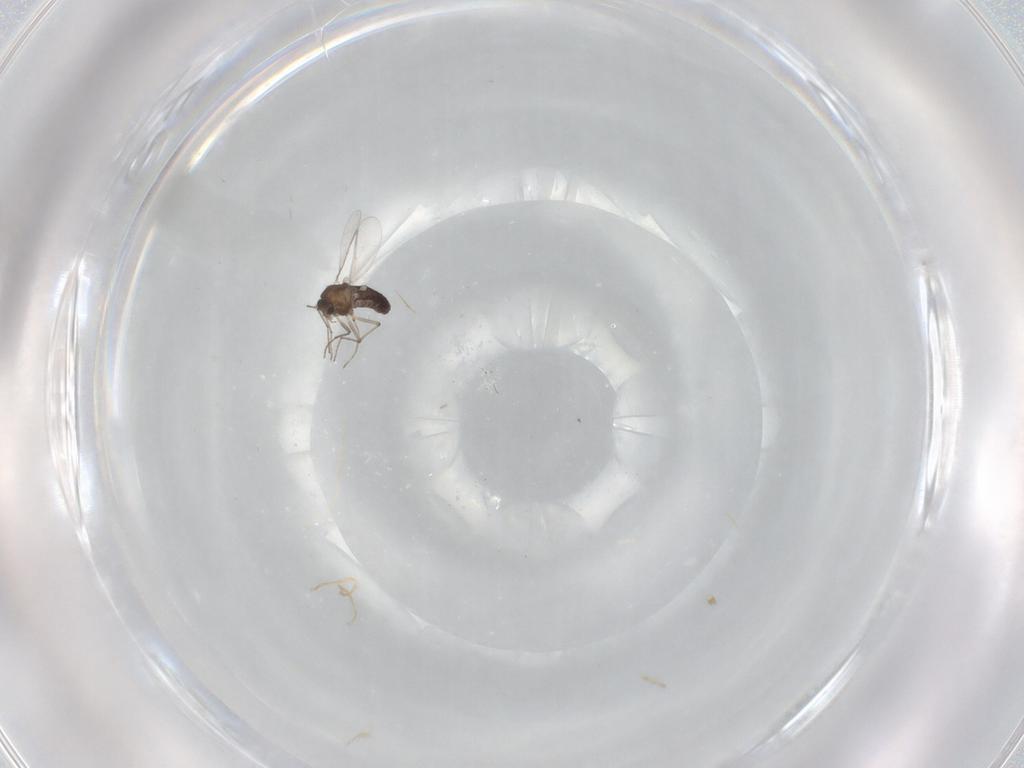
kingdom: Animalia
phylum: Arthropoda
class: Insecta
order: Diptera
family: Chironomidae
